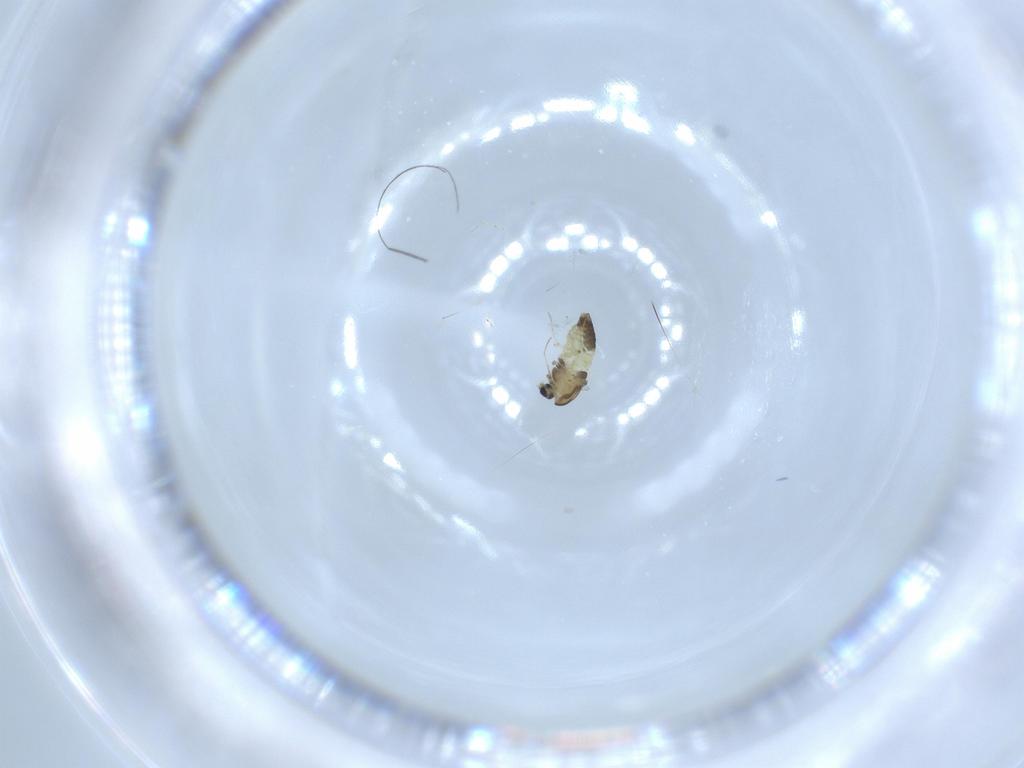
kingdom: Animalia
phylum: Arthropoda
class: Insecta
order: Diptera
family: Chironomidae
